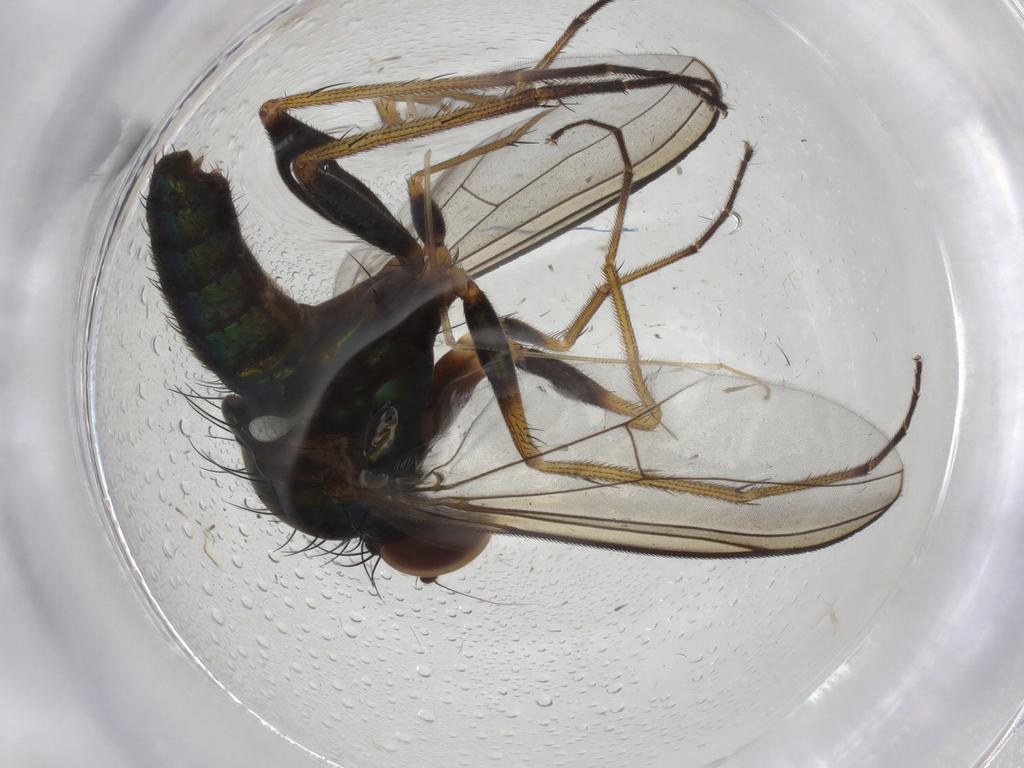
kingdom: Animalia
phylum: Arthropoda
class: Insecta
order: Diptera
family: Dolichopodidae
